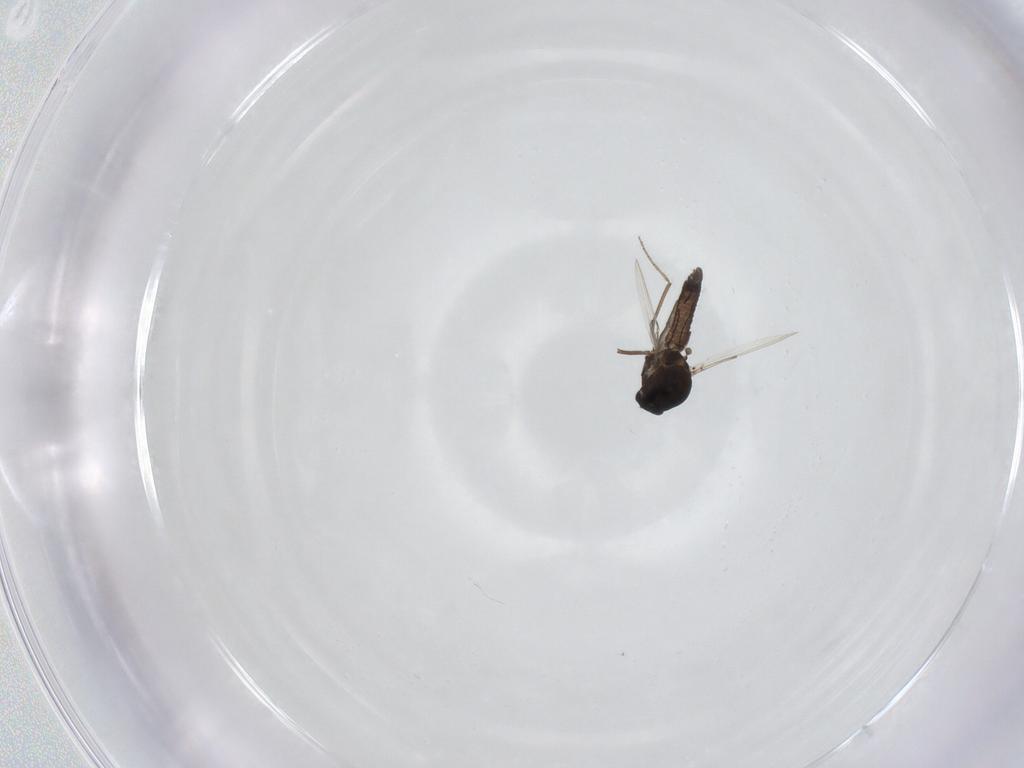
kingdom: Animalia
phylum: Arthropoda
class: Insecta
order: Diptera
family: Ceratopogonidae
